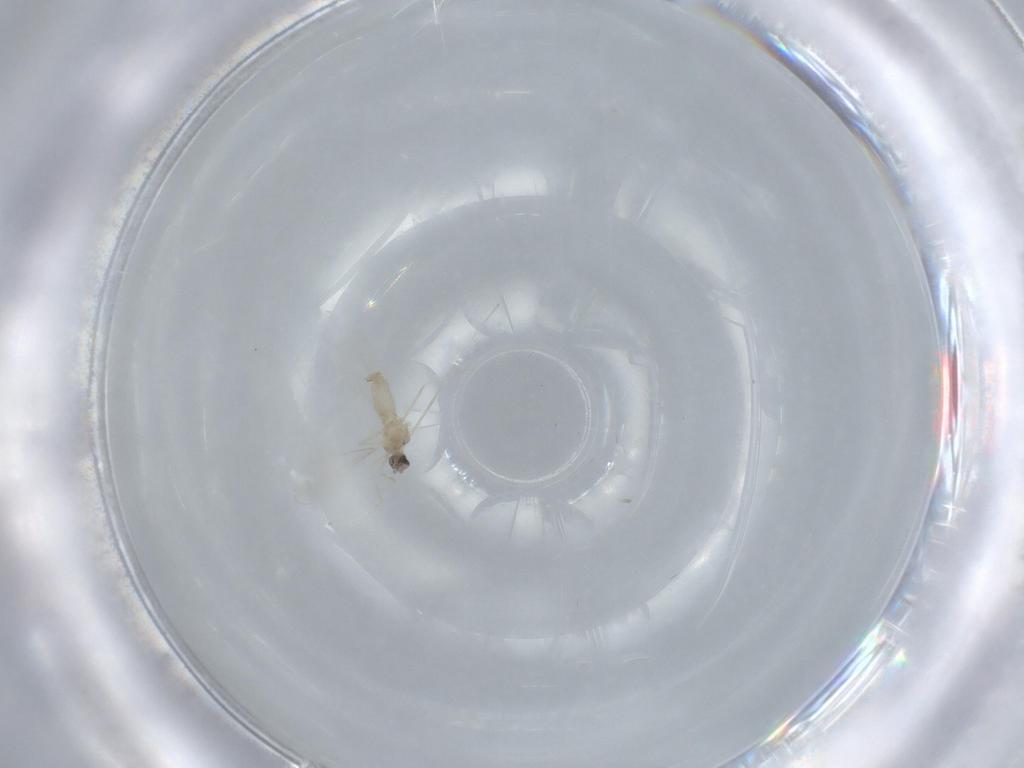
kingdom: Animalia
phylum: Arthropoda
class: Insecta
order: Diptera
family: Cecidomyiidae
